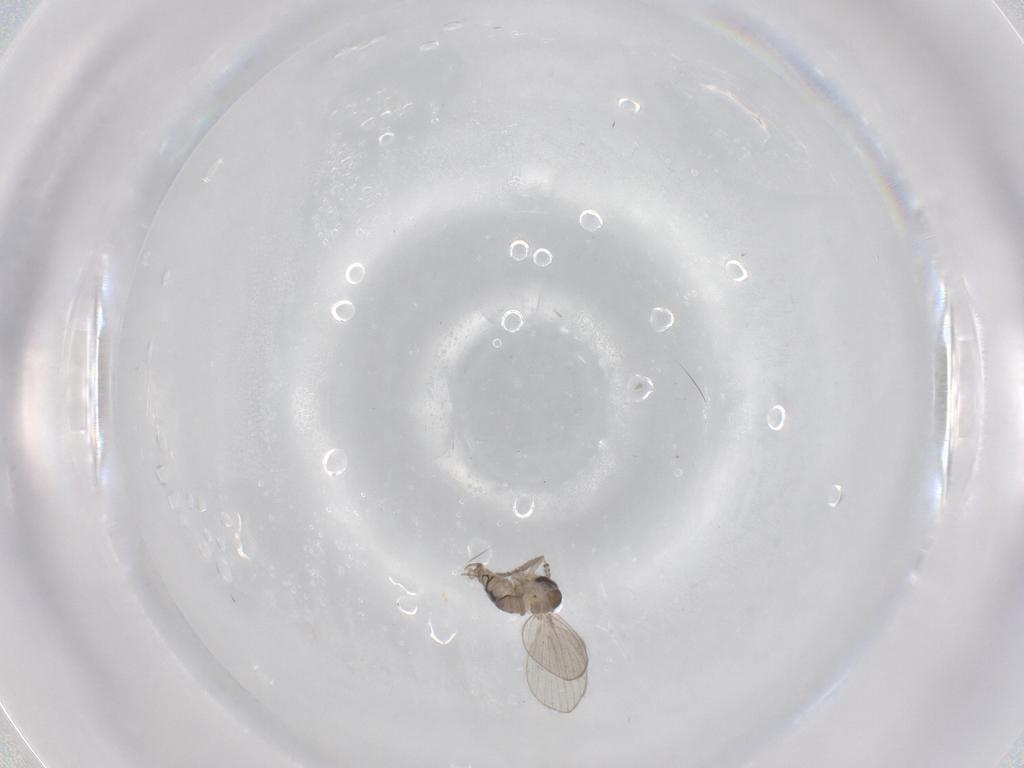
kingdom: Animalia
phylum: Arthropoda
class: Insecta
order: Diptera
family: Psychodidae
